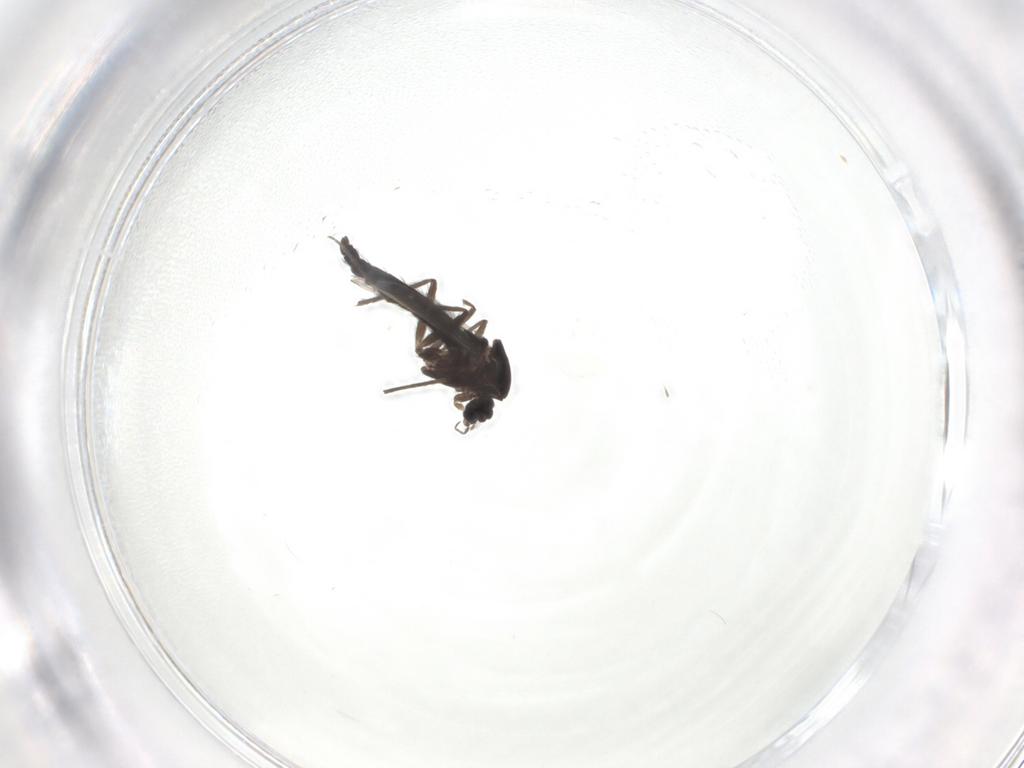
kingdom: Animalia
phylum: Arthropoda
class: Insecta
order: Diptera
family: Chironomidae
